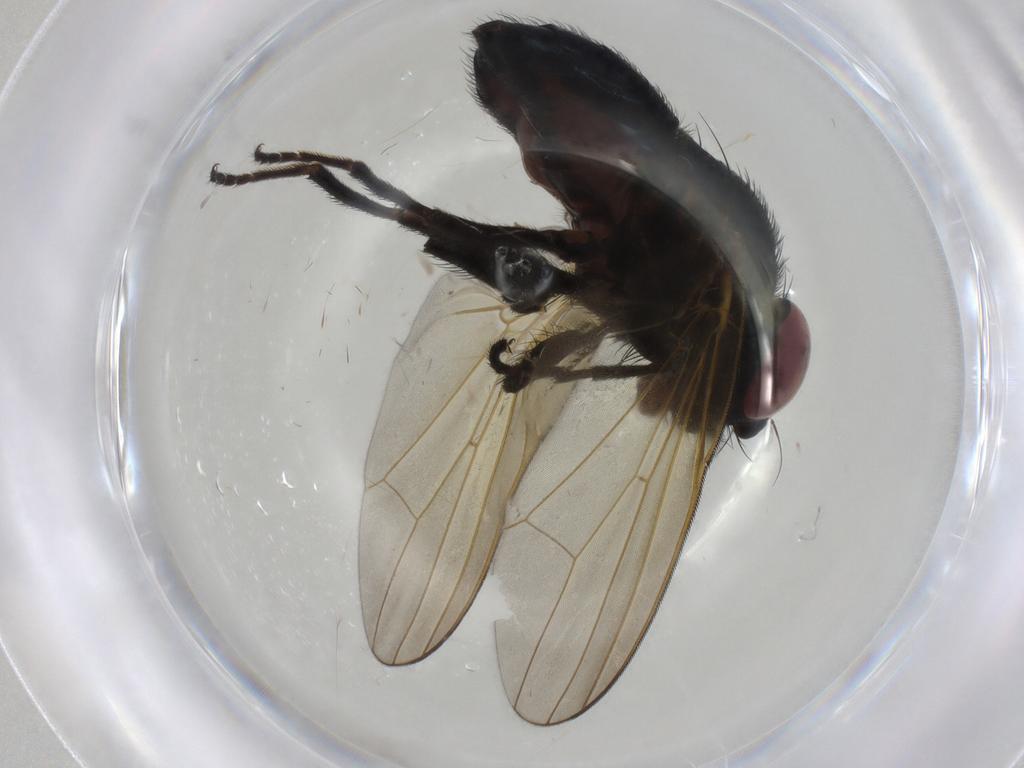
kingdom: Animalia
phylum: Arthropoda
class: Insecta
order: Diptera
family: Lonchaeidae
